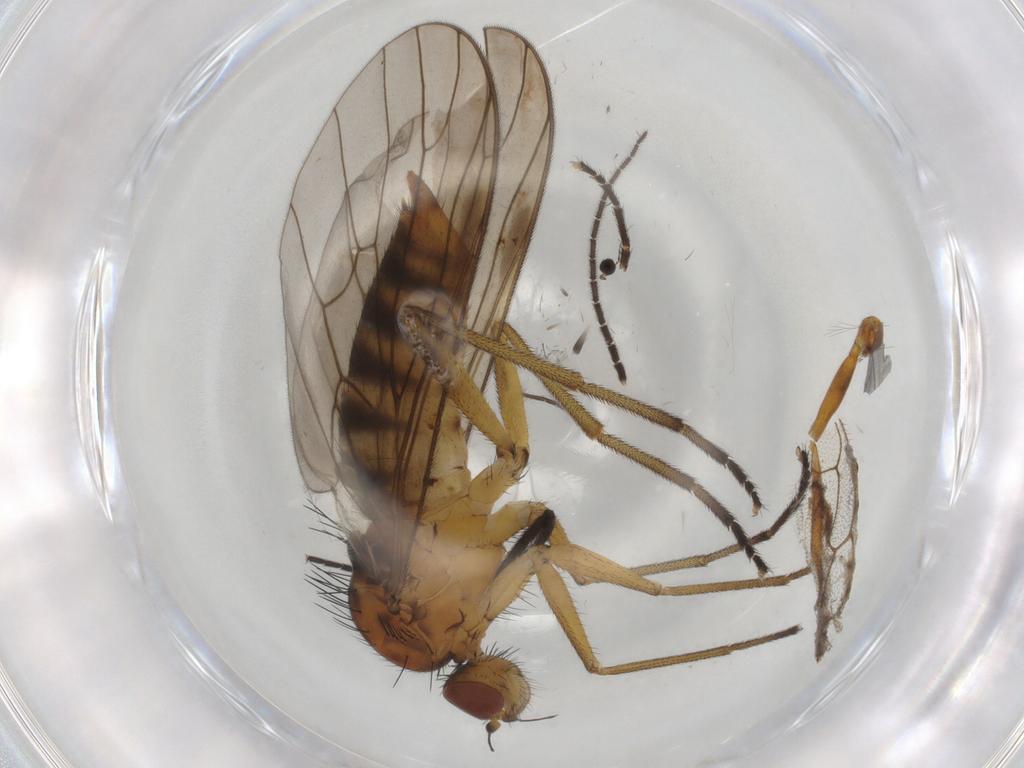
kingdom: Animalia
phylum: Arthropoda
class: Insecta
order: Diptera
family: Brachystomatidae
